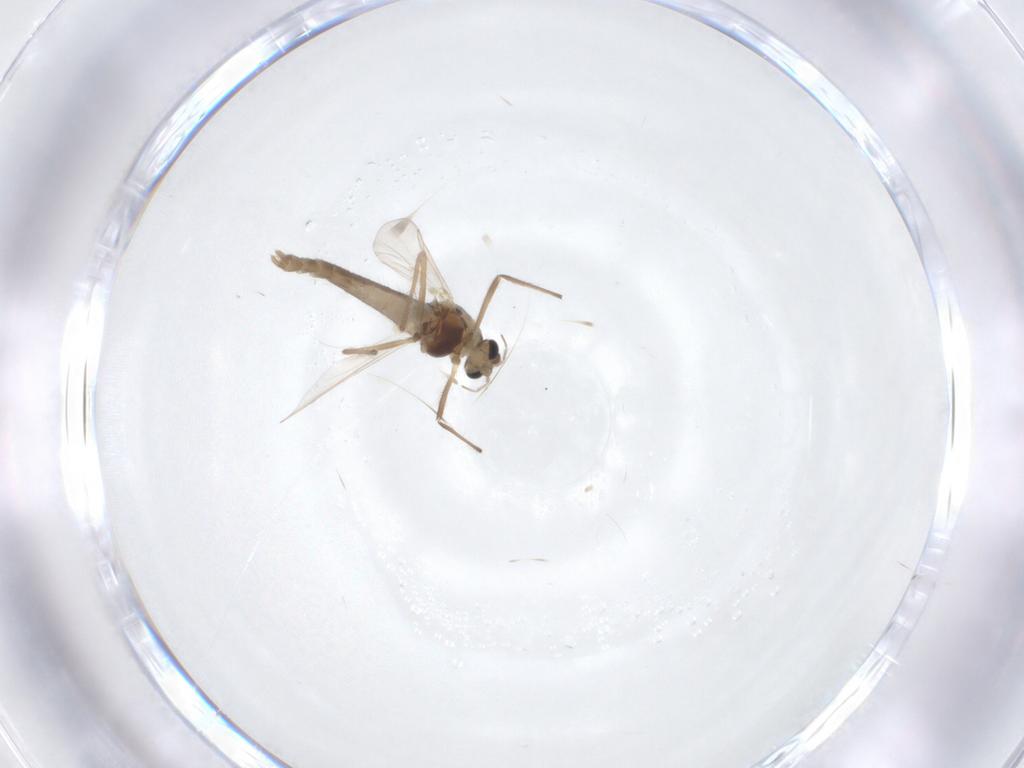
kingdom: Animalia
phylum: Arthropoda
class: Insecta
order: Diptera
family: Chironomidae
